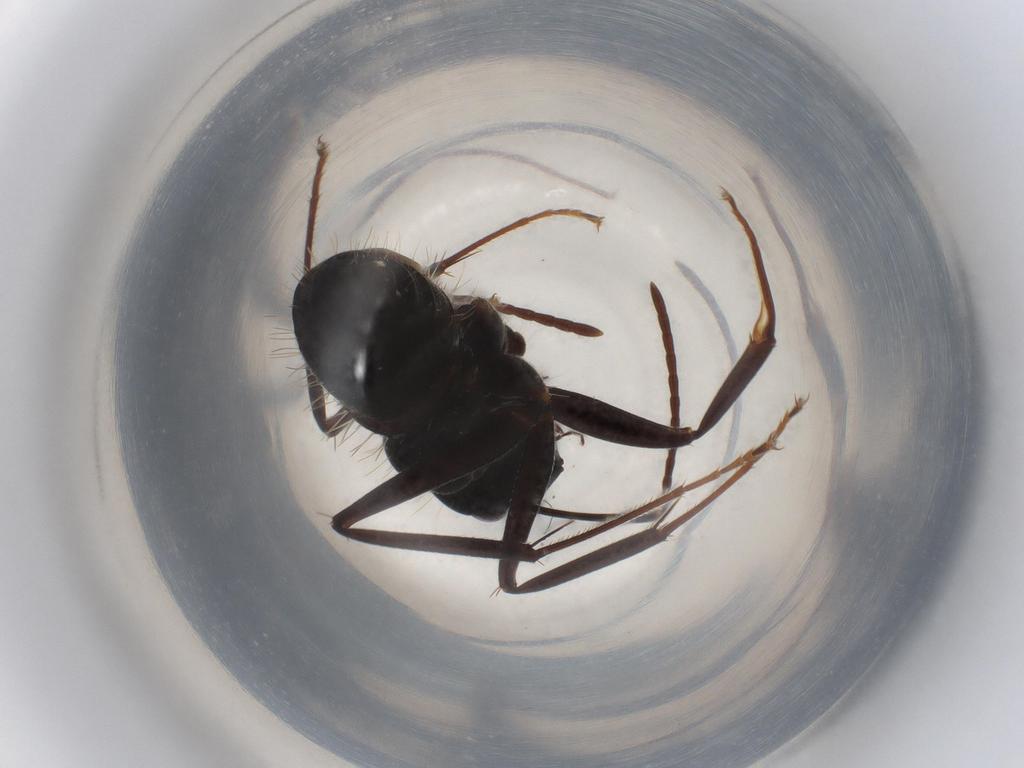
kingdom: Animalia
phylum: Arthropoda
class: Insecta
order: Hymenoptera
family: Formicidae
